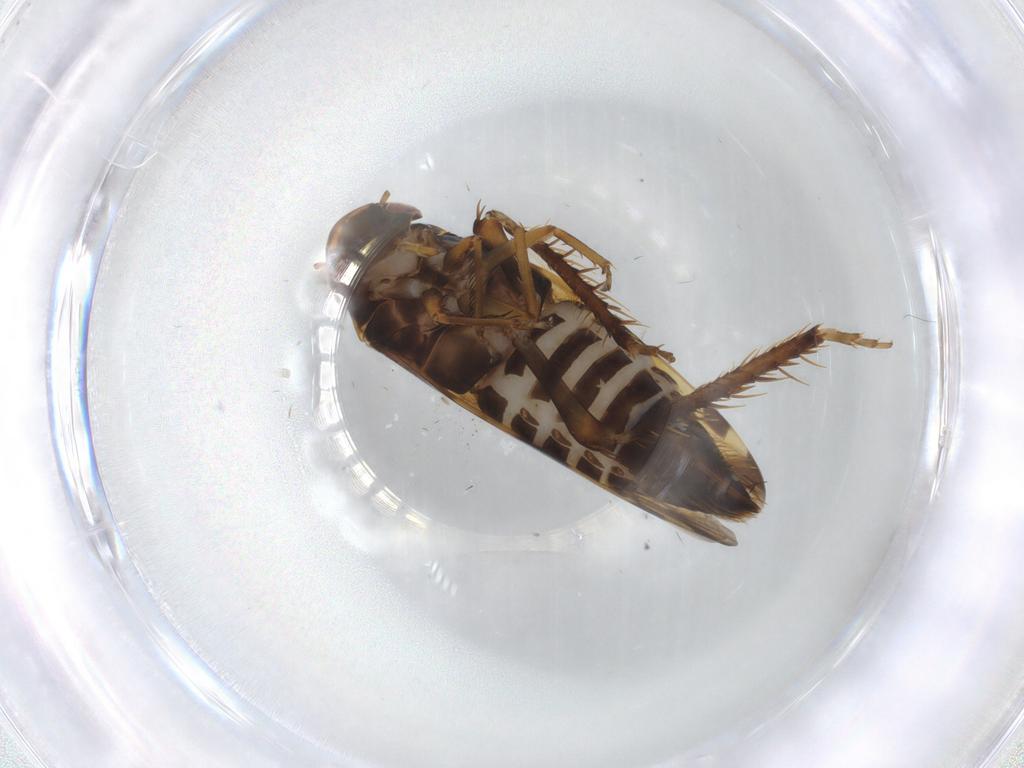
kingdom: Animalia
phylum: Arthropoda
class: Insecta
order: Hemiptera
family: Cicadellidae
